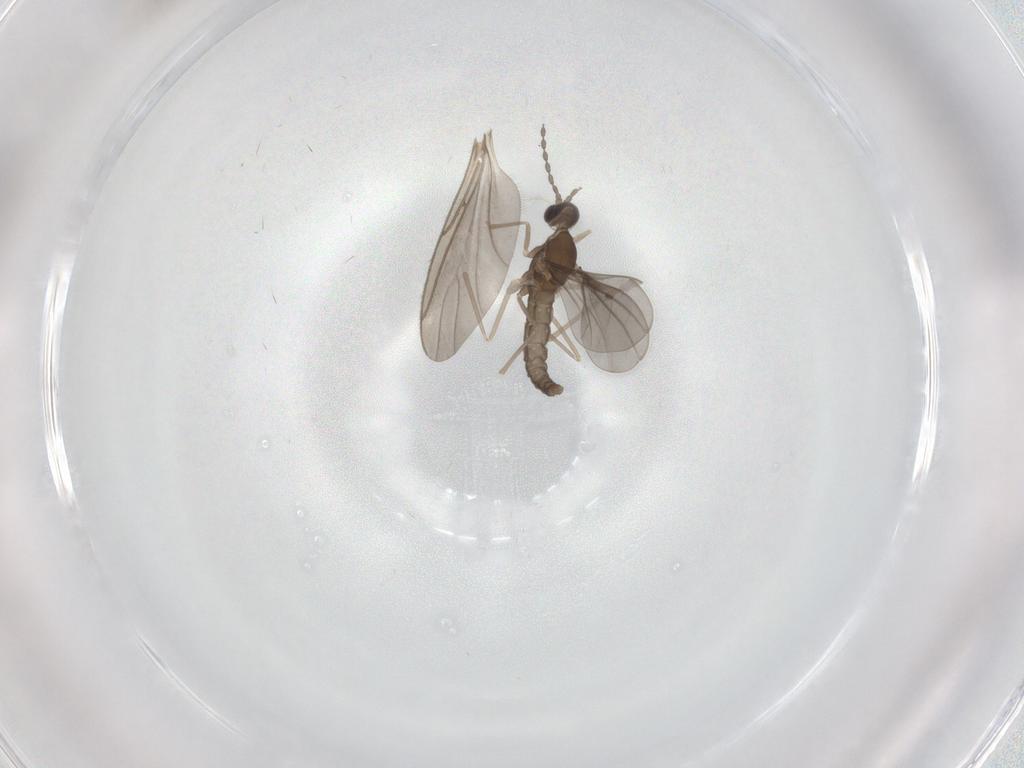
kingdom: Animalia
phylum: Arthropoda
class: Insecta
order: Diptera
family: Cecidomyiidae
